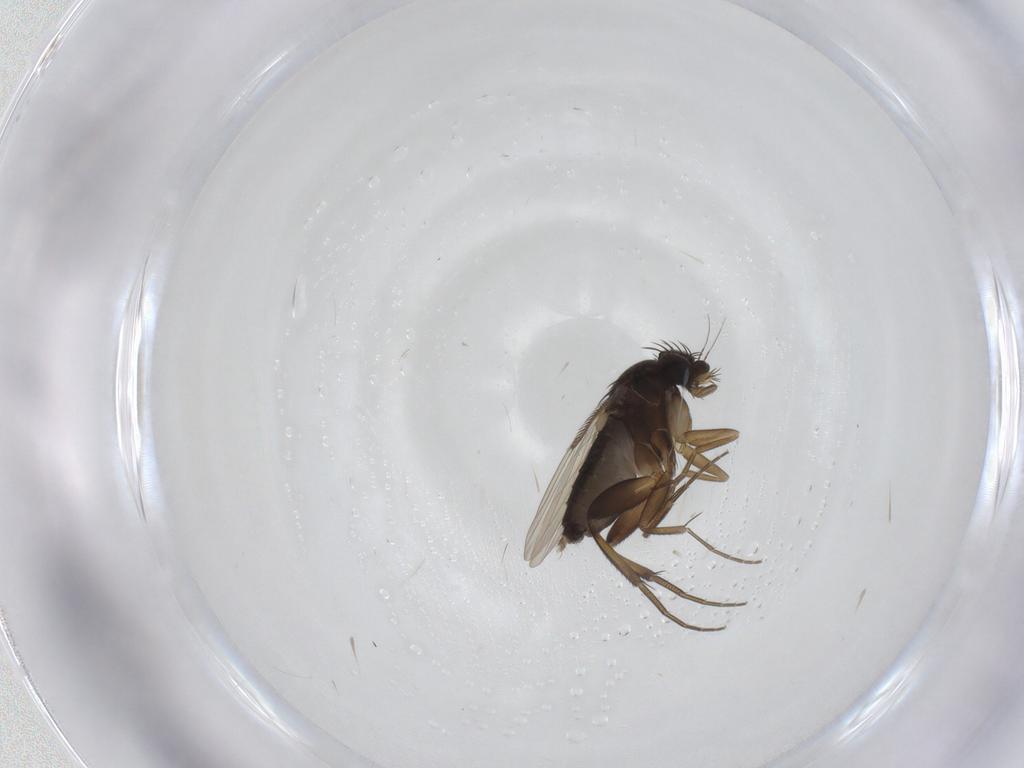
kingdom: Animalia
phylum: Arthropoda
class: Insecta
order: Diptera
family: Phoridae
